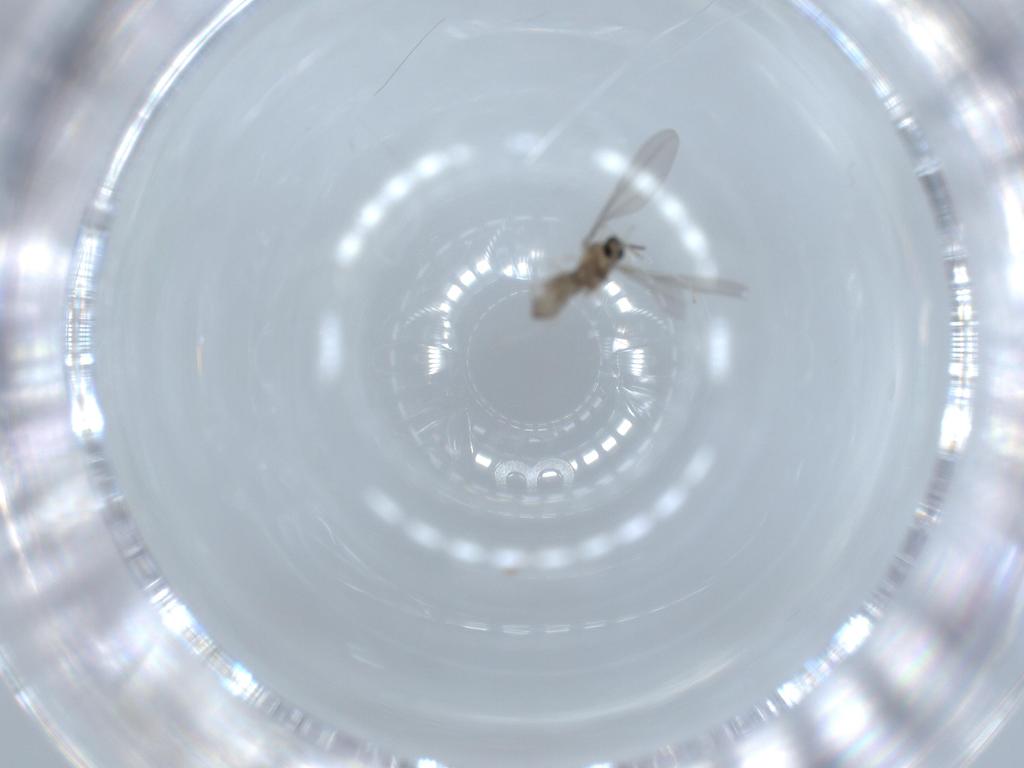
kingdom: Animalia
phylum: Arthropoda
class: Insecta
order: Diptera
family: Cecidomyiidae
